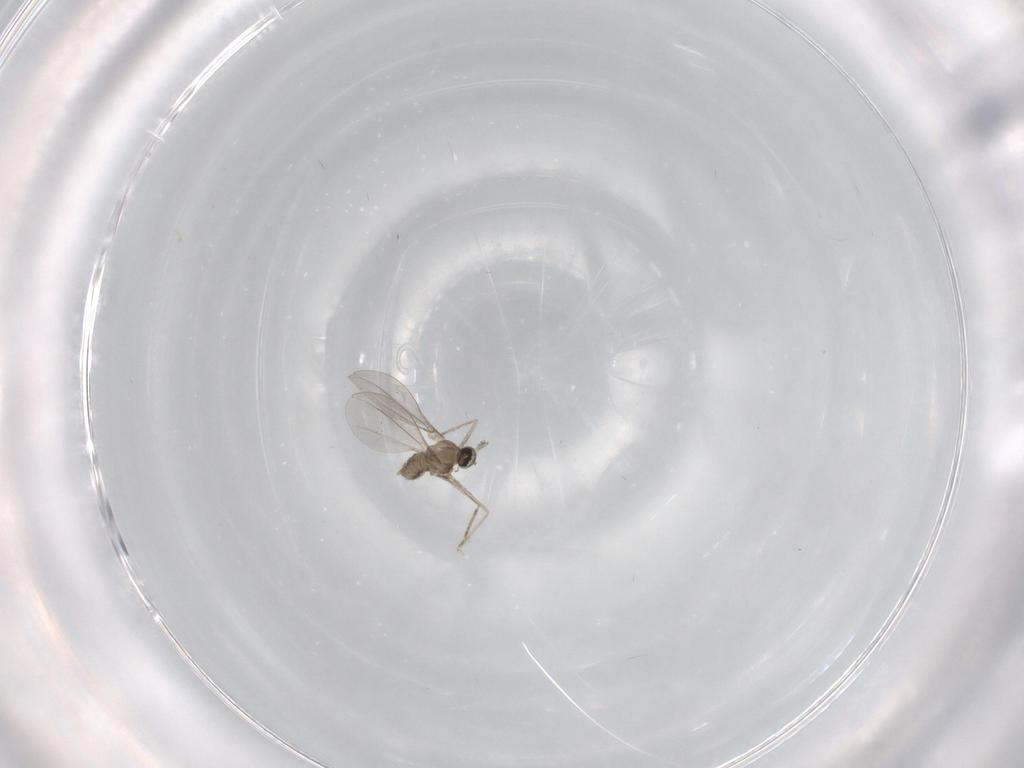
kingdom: Animalia
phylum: Arthropoda
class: Insecta
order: Diptera
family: Cecidomyiidae
